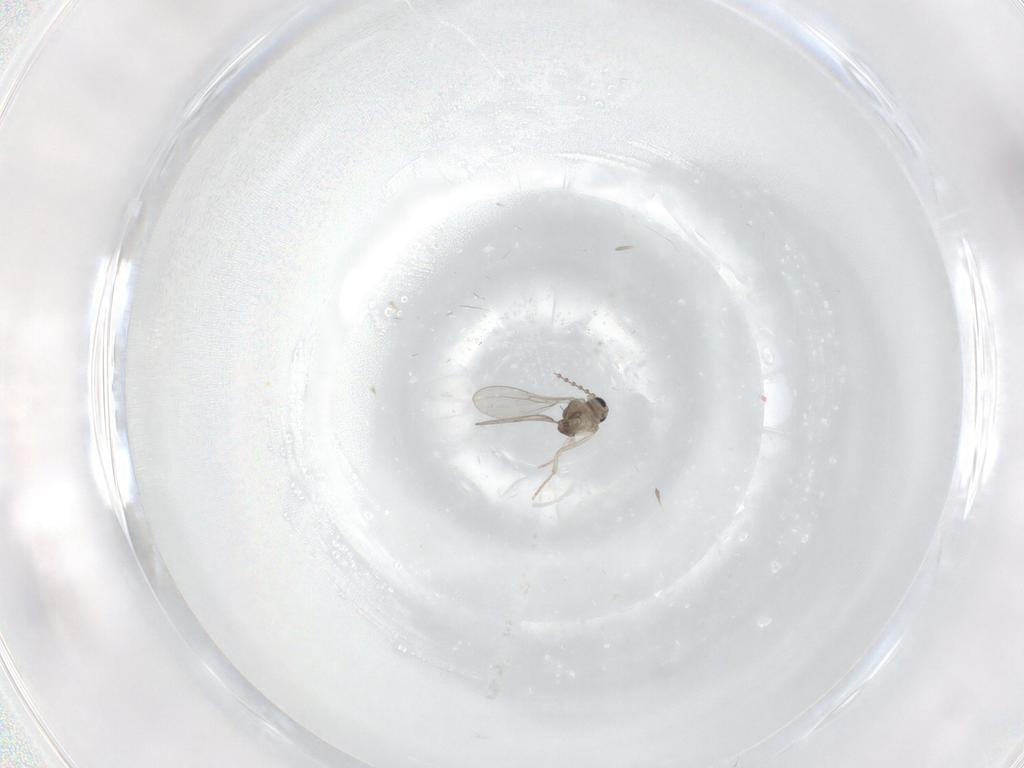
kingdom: Animalia
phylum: Arthropoda
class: Insecta
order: Diptera
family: Cecidomyiidae
